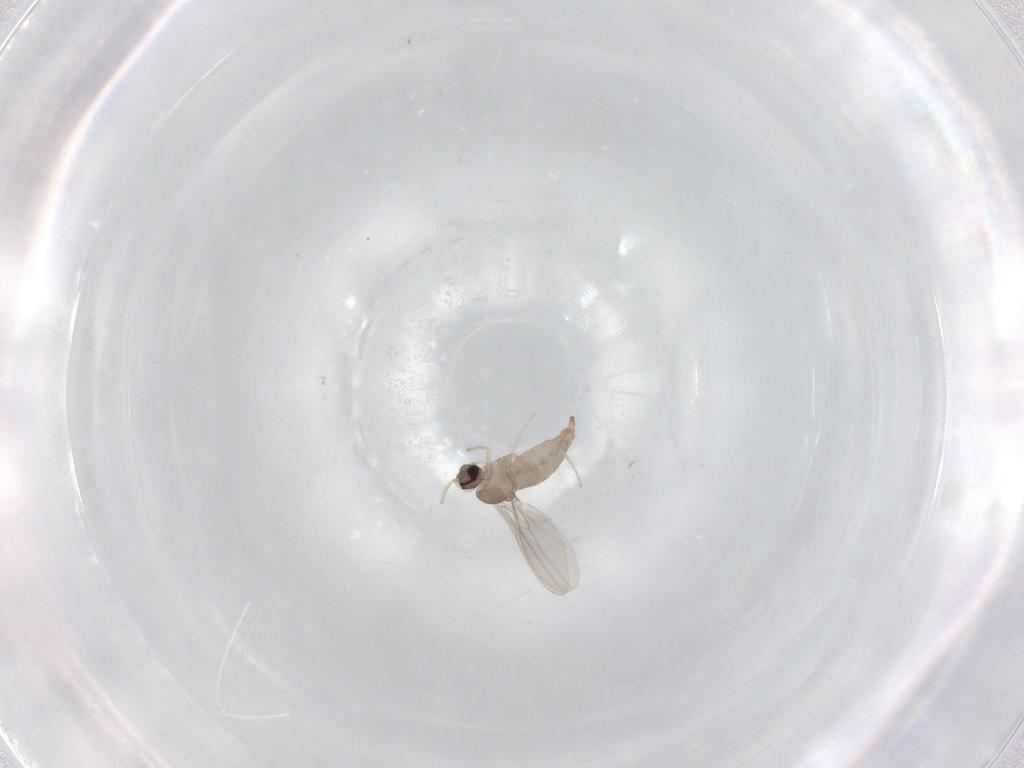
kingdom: Animalia
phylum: Arthropoda
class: Insecta
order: Diptera
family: Cecidomyiidae
